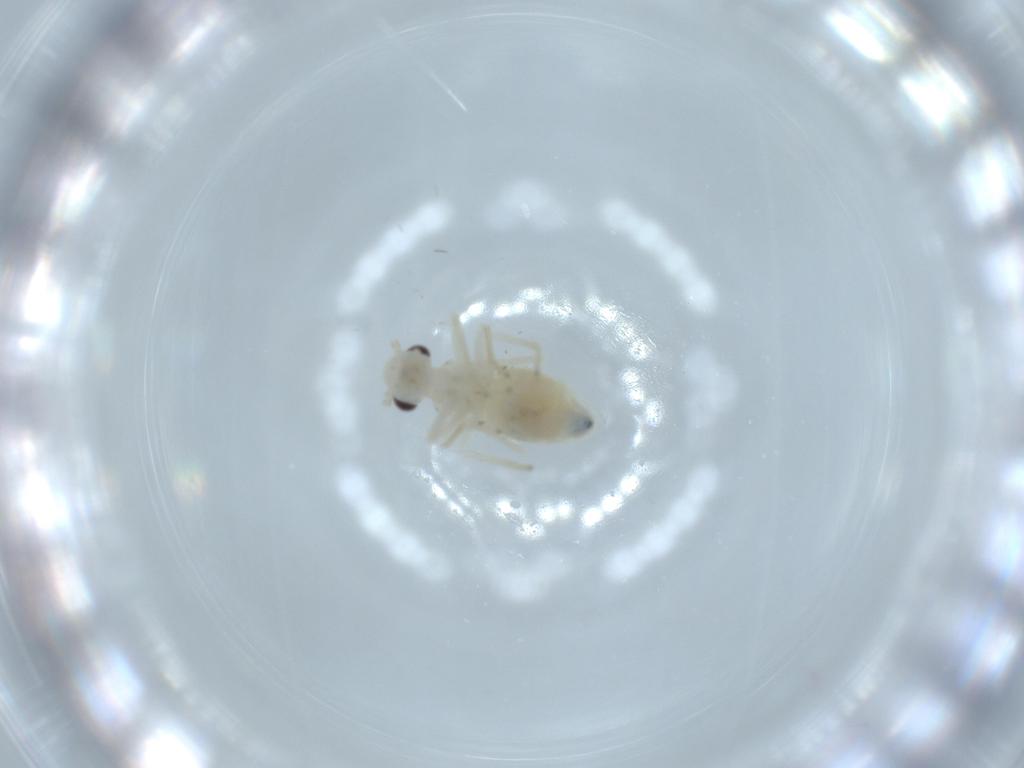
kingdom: Animalia
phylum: Arthropoda
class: Insecta
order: Psocodea
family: Caeciliusidae
